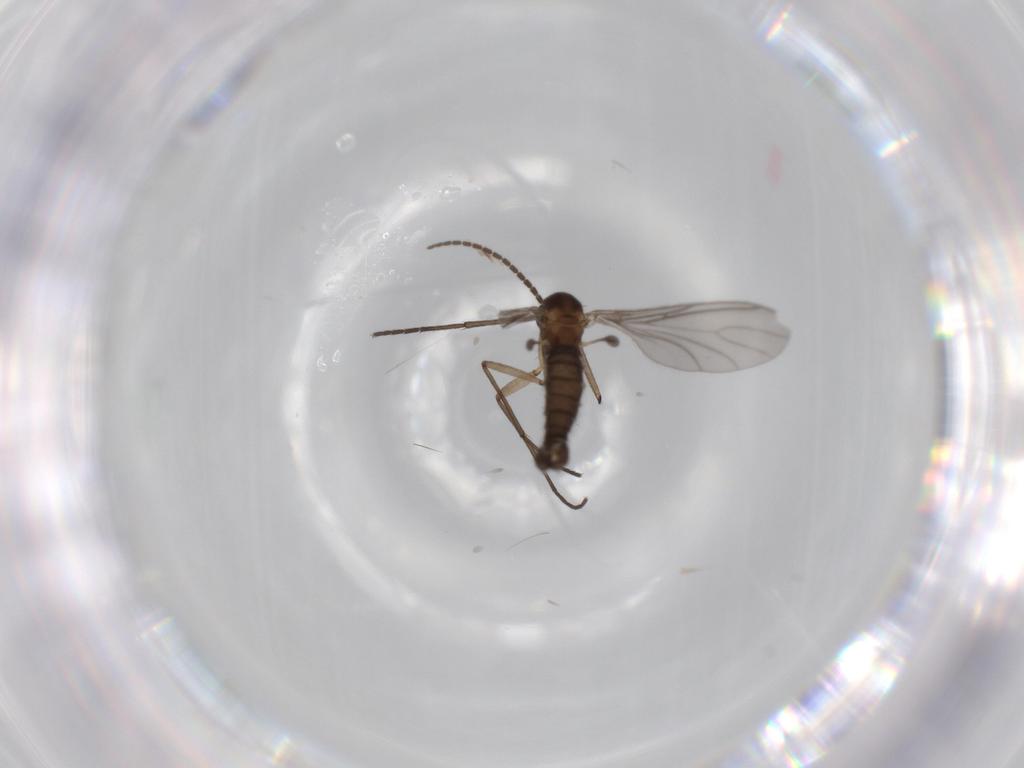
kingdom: Animalia
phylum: Arthropoda
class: Insecta
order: Diptera
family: Sciaridae
